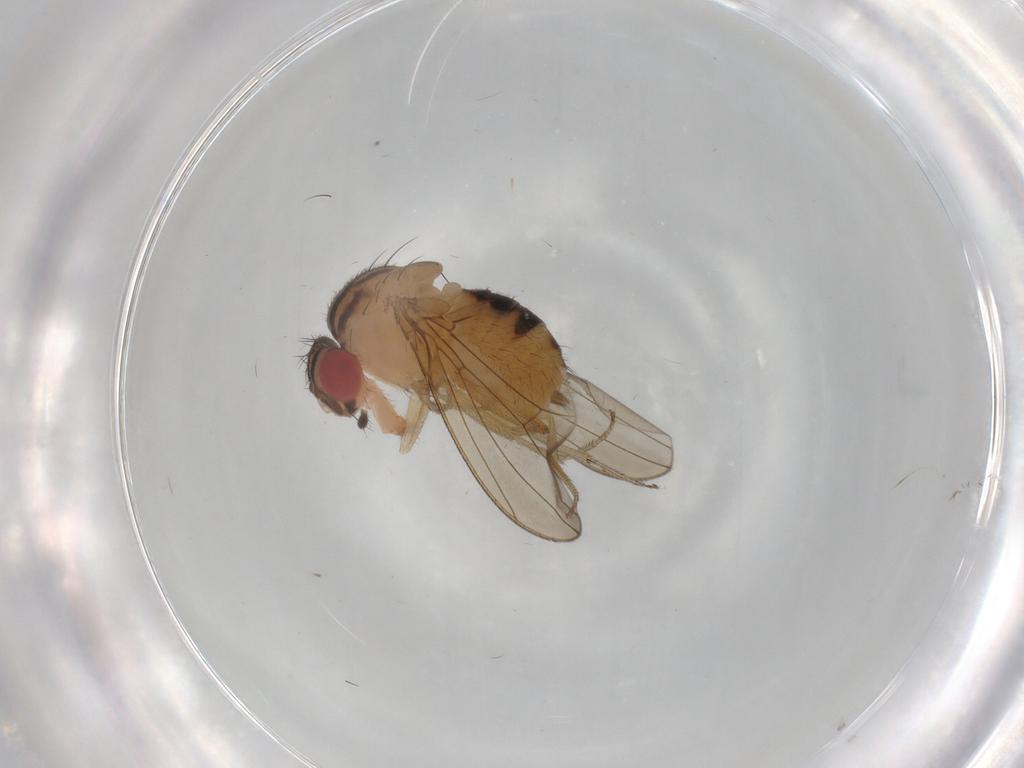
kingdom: Animalia
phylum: Arthropoda
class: Insecta
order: Diptera
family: Drosophilidae
